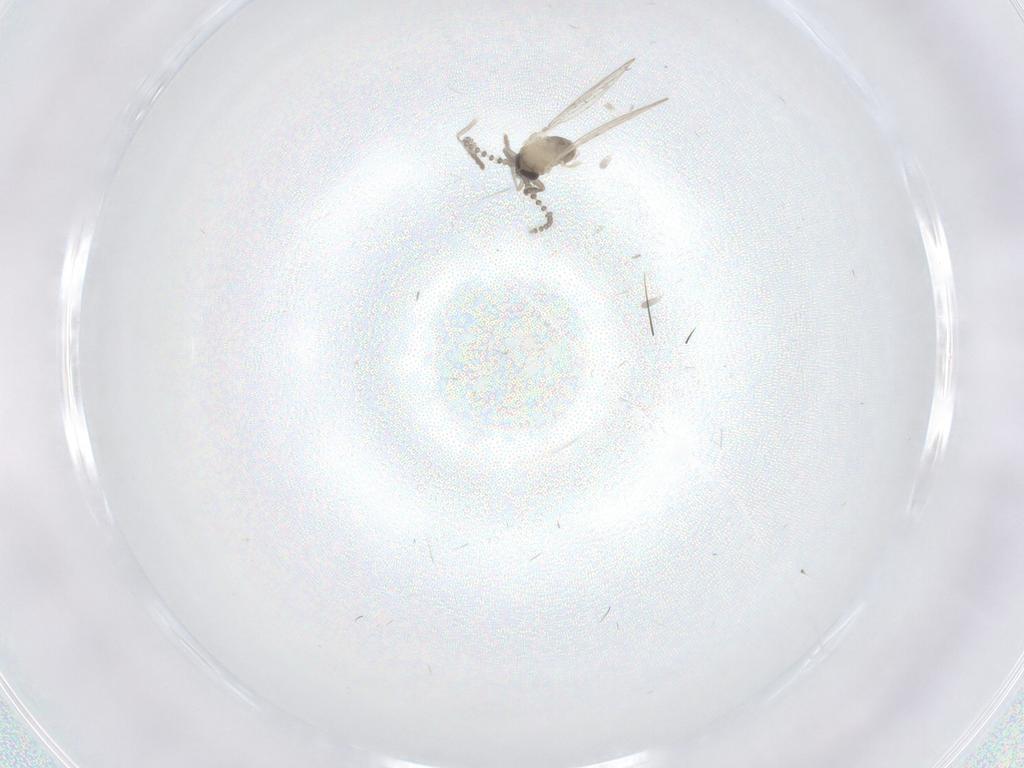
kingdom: Animalia
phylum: Arthropoda
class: Insecta
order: Diptera
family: Psychodidae
